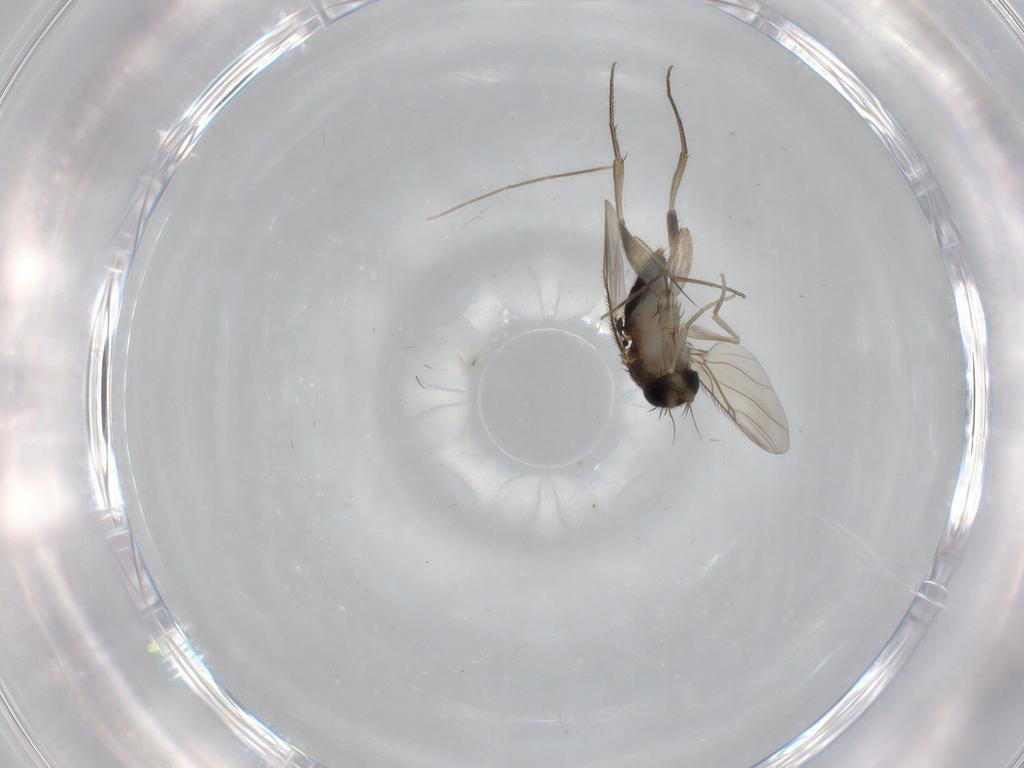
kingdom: Animalia
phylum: Arthropoda
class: Insecta
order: Diptera
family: Phoridae
